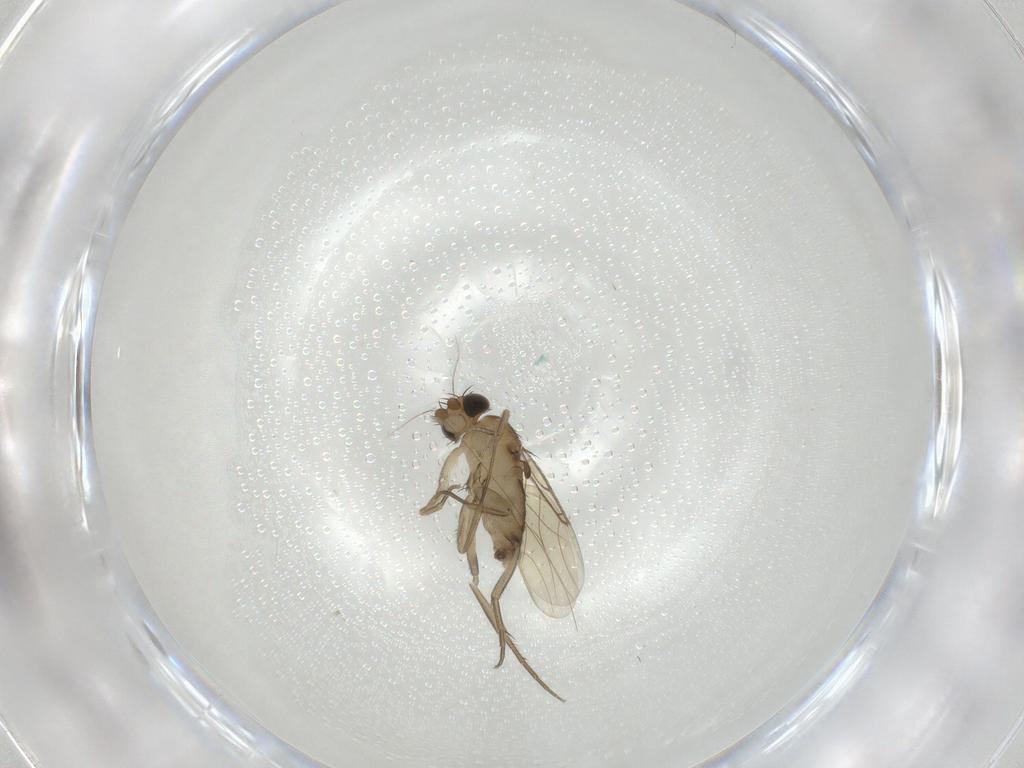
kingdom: Animalia
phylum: Arthropoda
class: Insecta
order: Diptera
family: Phoridae
